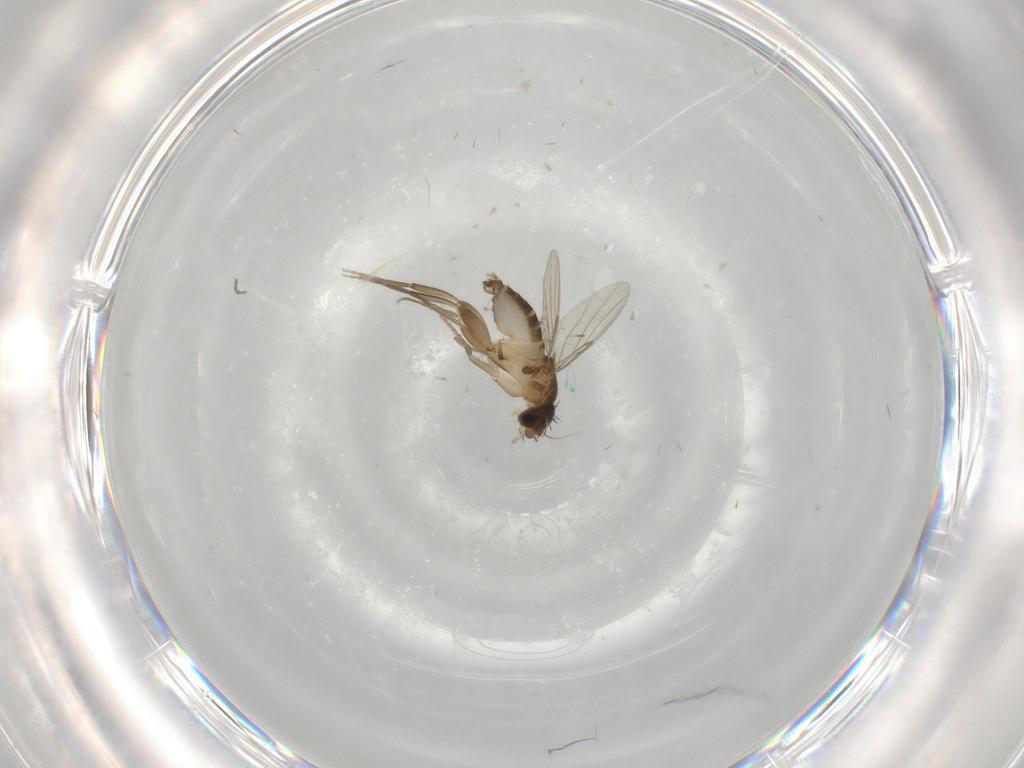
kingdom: Animalia
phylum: Arthropoda
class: Insecta
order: Diptera
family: Phoridae
